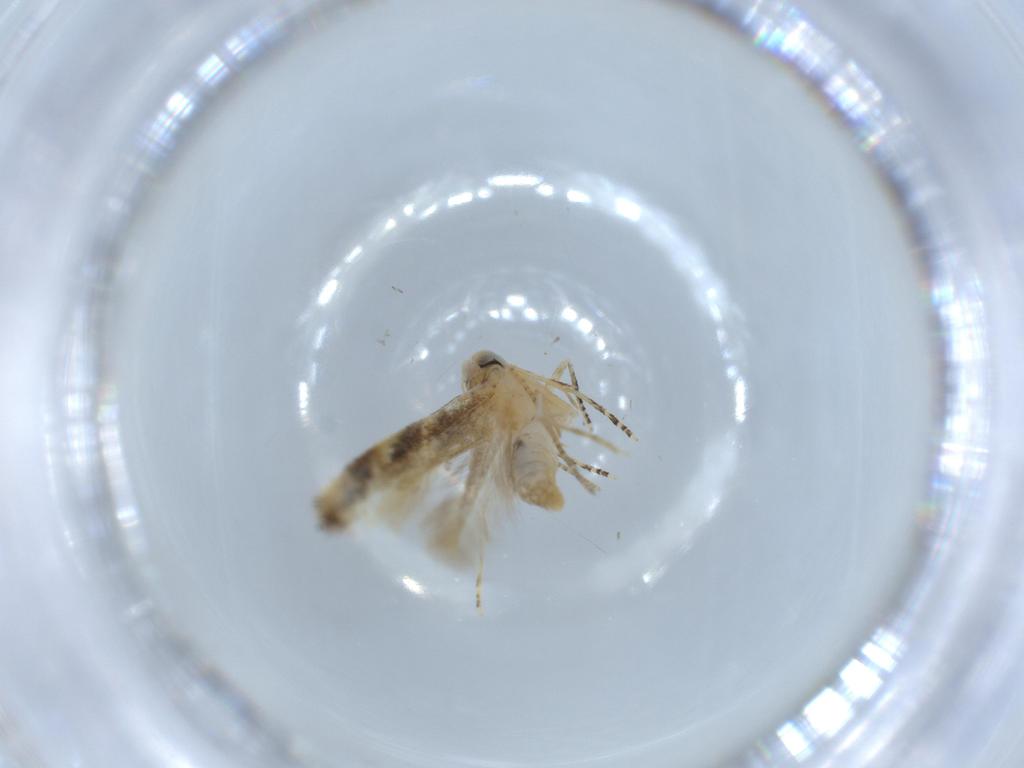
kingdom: Animalia
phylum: Arthropoda
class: Insecta
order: Lepidoptera
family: Bucculatricidae
